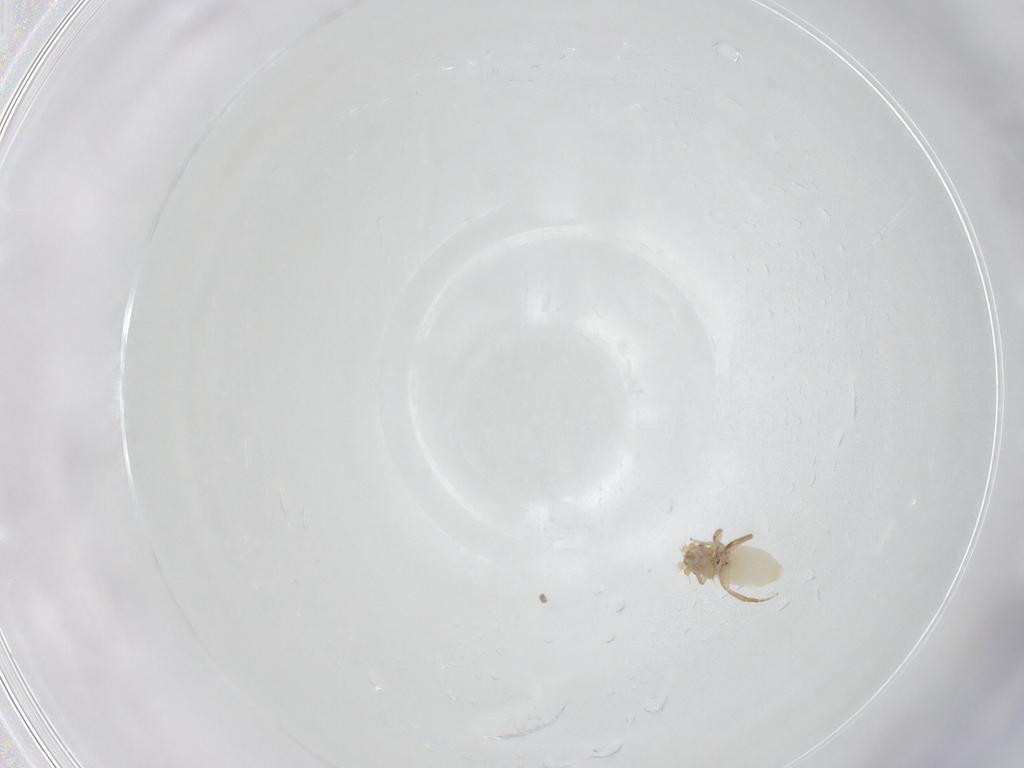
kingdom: Animalia
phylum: Arthropoda
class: Insecta
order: Diptera
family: Phoridae
